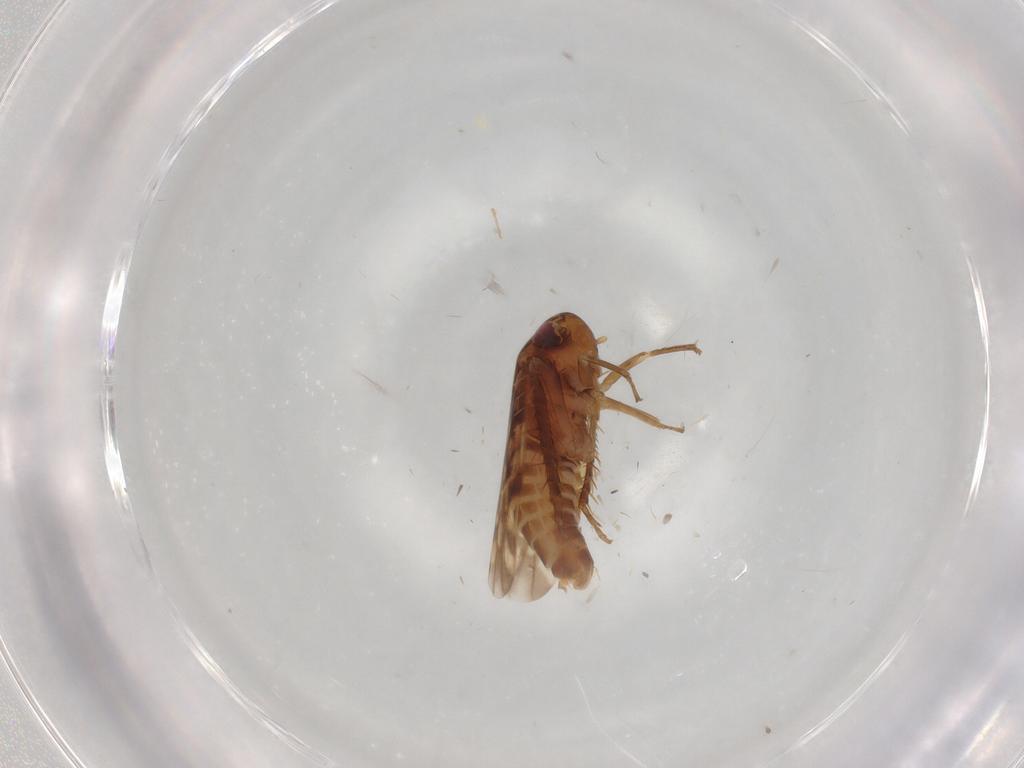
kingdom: Animalia
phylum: Arthropoda
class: Insecta
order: Hemiptera
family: Cicadellidae
